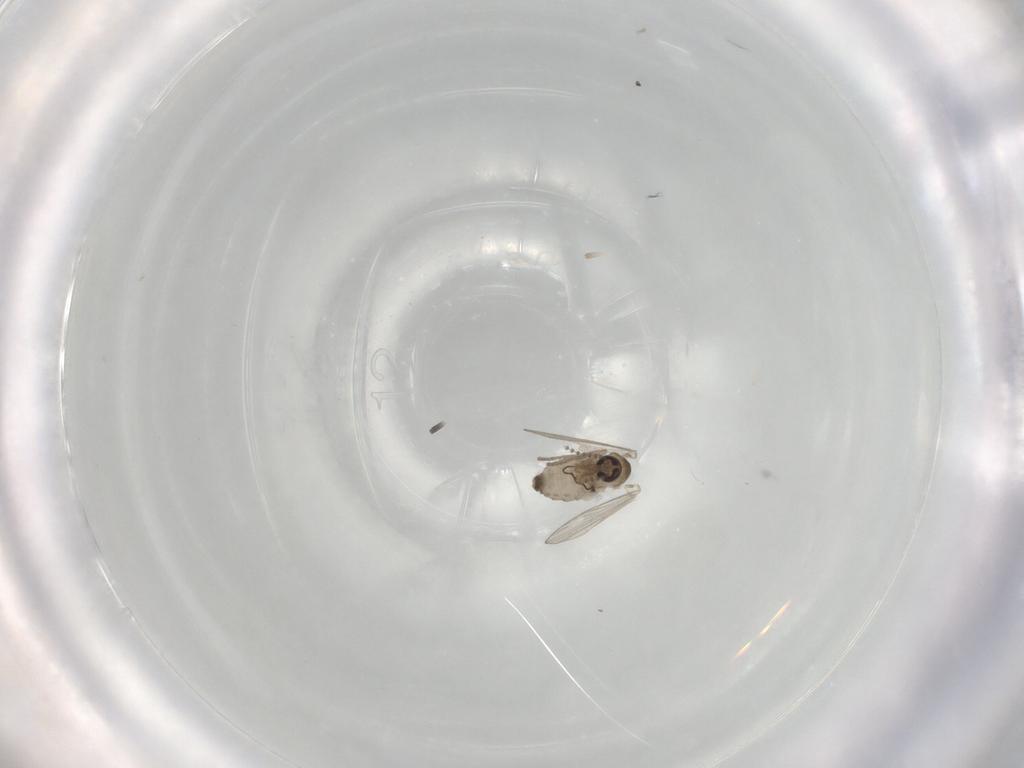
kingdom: Animalia
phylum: Arthropoda
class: Insecta
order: Diptera
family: Psychodidae
